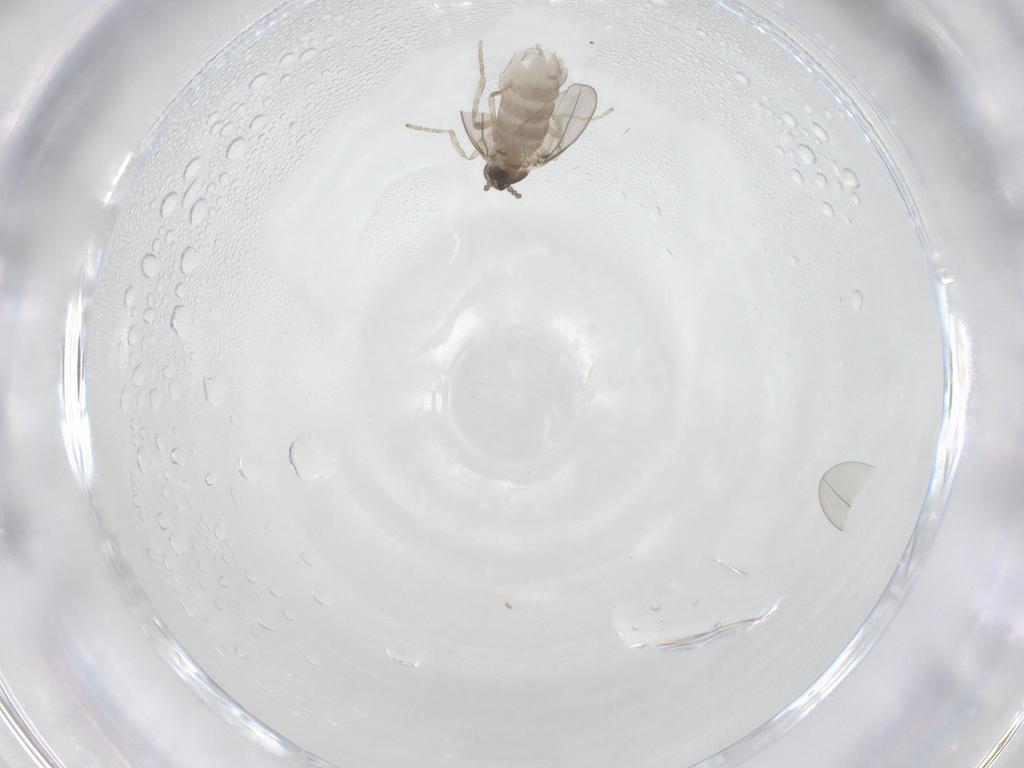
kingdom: Animalia
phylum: Arthropoda
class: Insecta
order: Diptera
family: Cecidomyiidae
